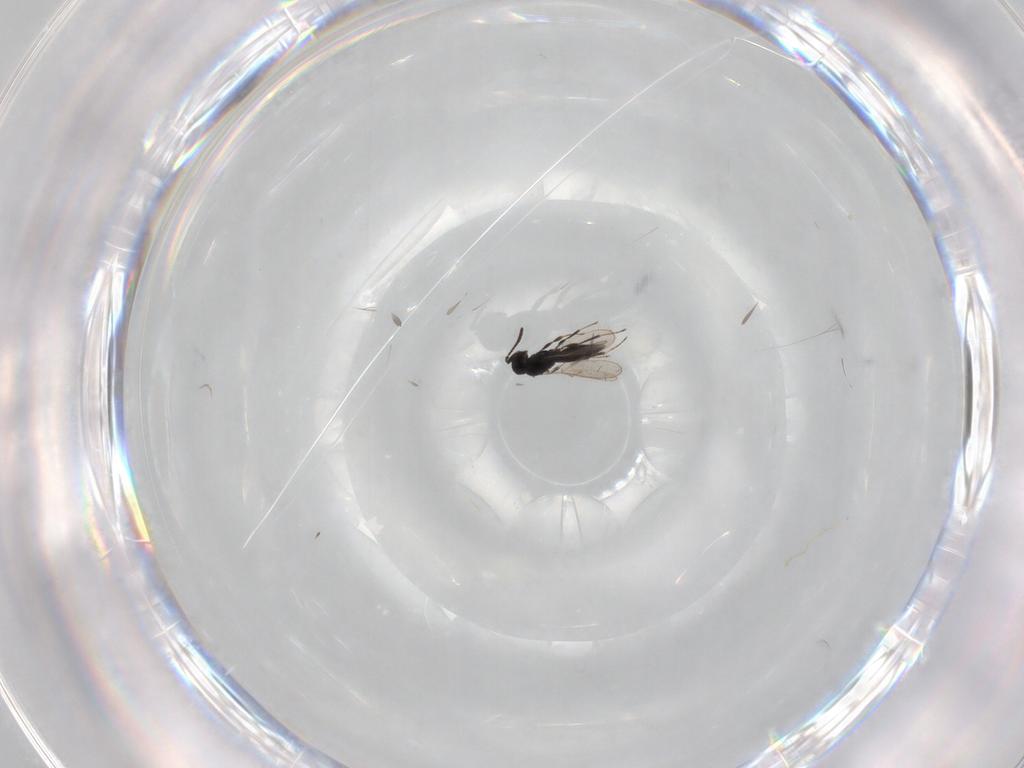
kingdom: Animalia
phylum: Arthropoda
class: Insecta
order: Hymenoptera
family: Scelionidae
